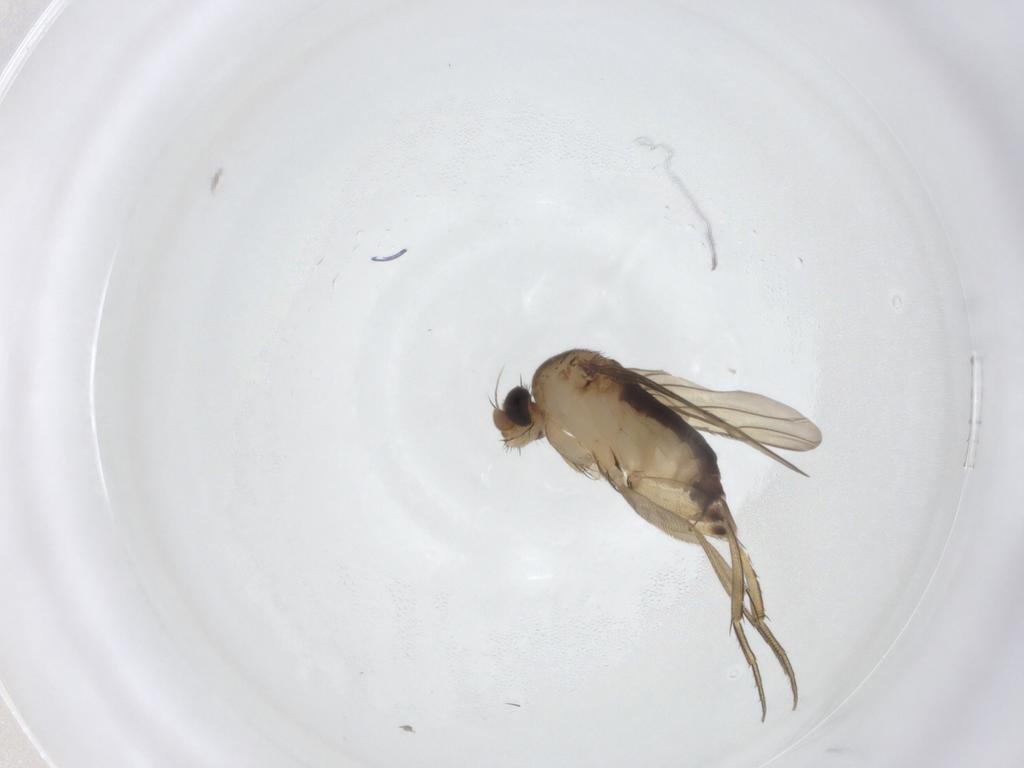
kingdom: Animalia
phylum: Arthropoda
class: Insecta
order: Diptera
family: Phoridae
